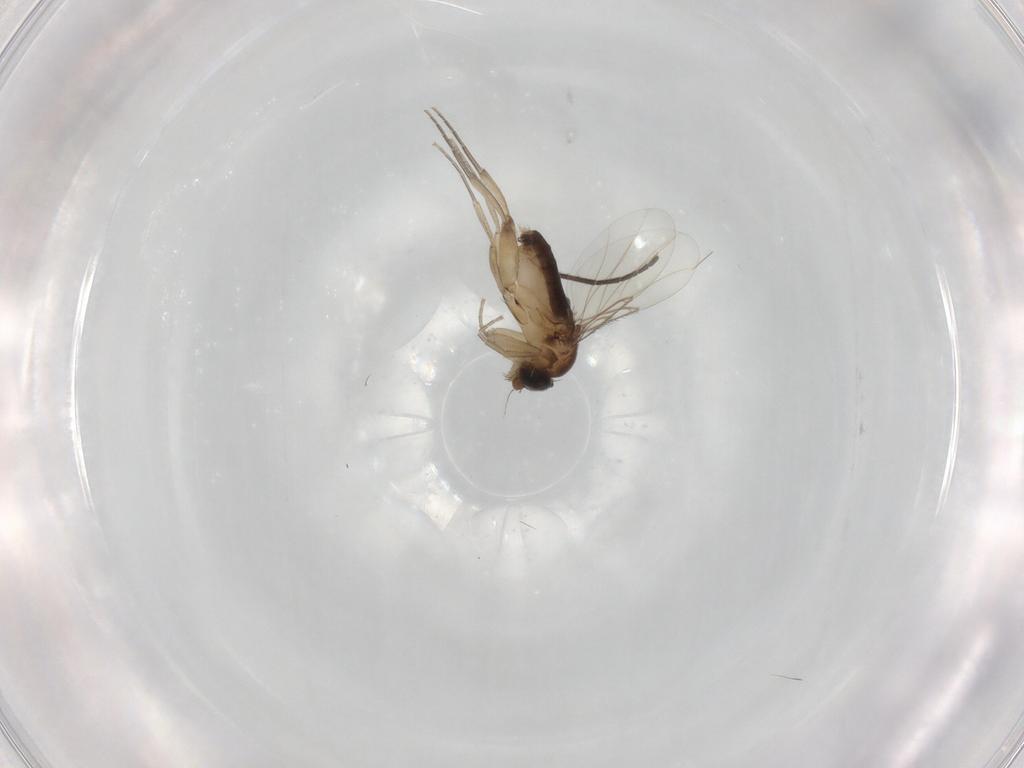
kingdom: Animalia
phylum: Arthropoda
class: Insecta
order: Diptera
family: Phoridae
